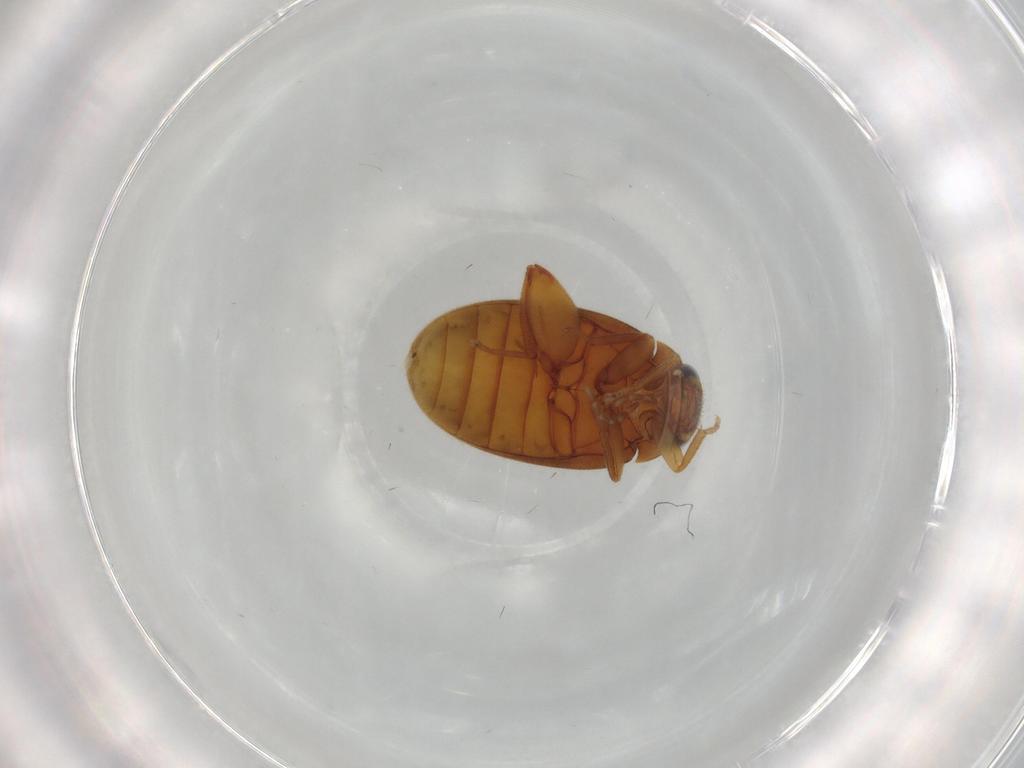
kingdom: Animalia
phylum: Arthropoda
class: Insecta
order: Coleoptera
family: Scirtidae
